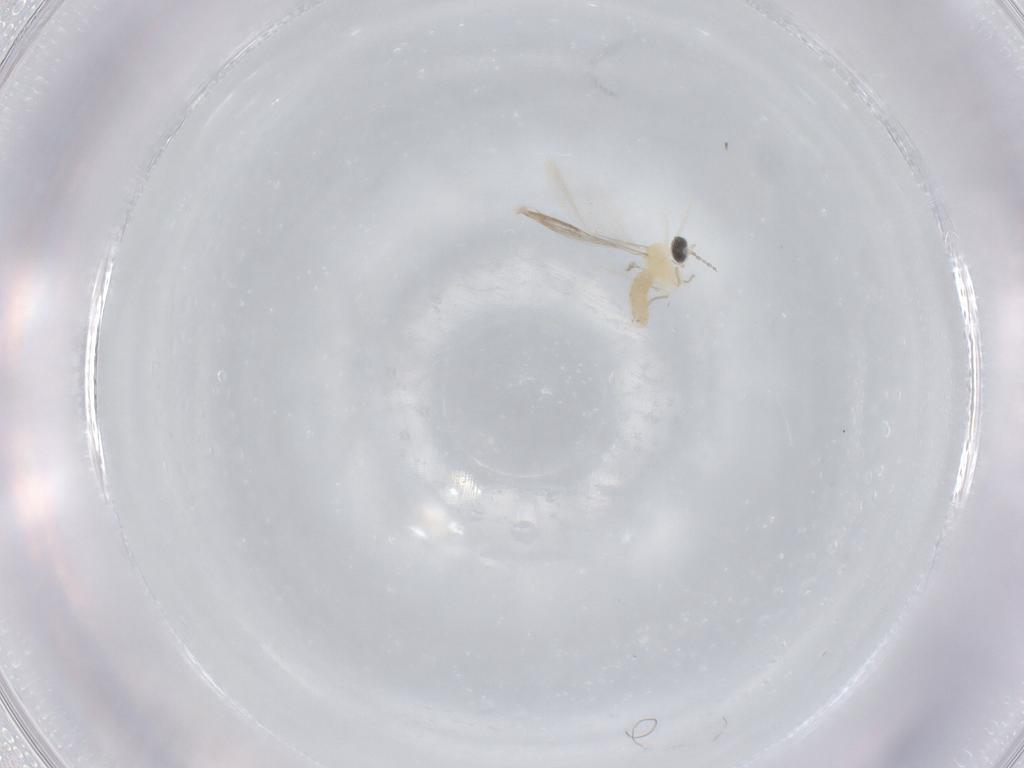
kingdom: Animalia
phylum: Arthropoda
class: Insecta
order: Diptera
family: Cecidomyiidae
